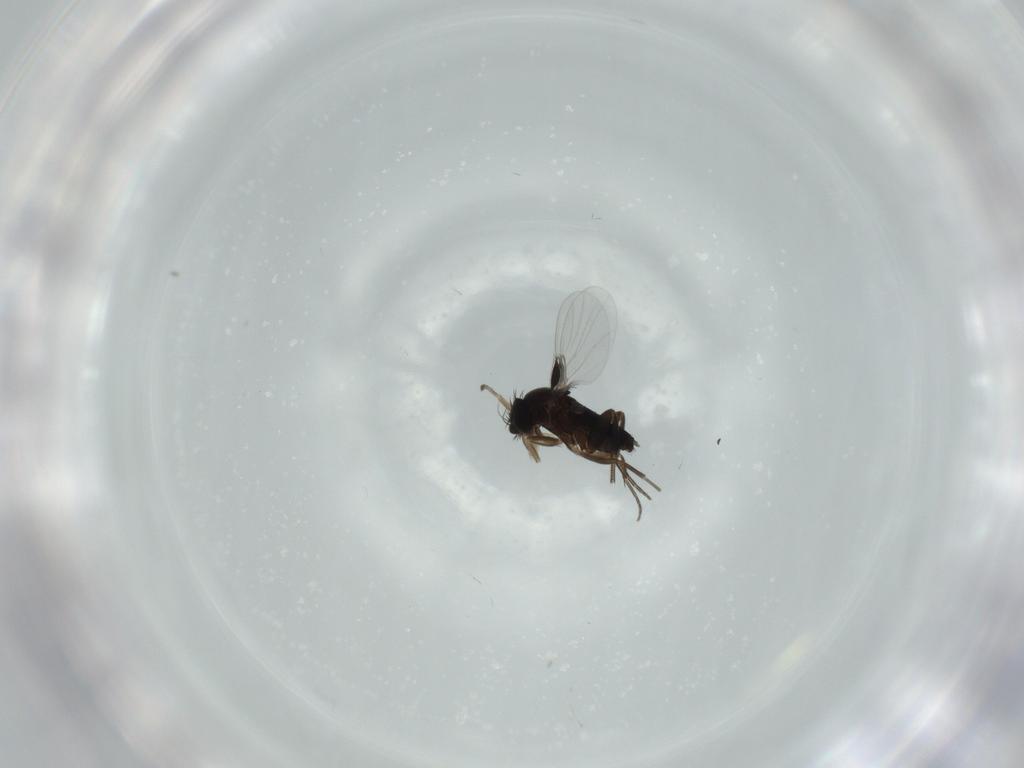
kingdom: Animalia
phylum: Arthropoda
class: Insecta
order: Diptera
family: Phoridae
